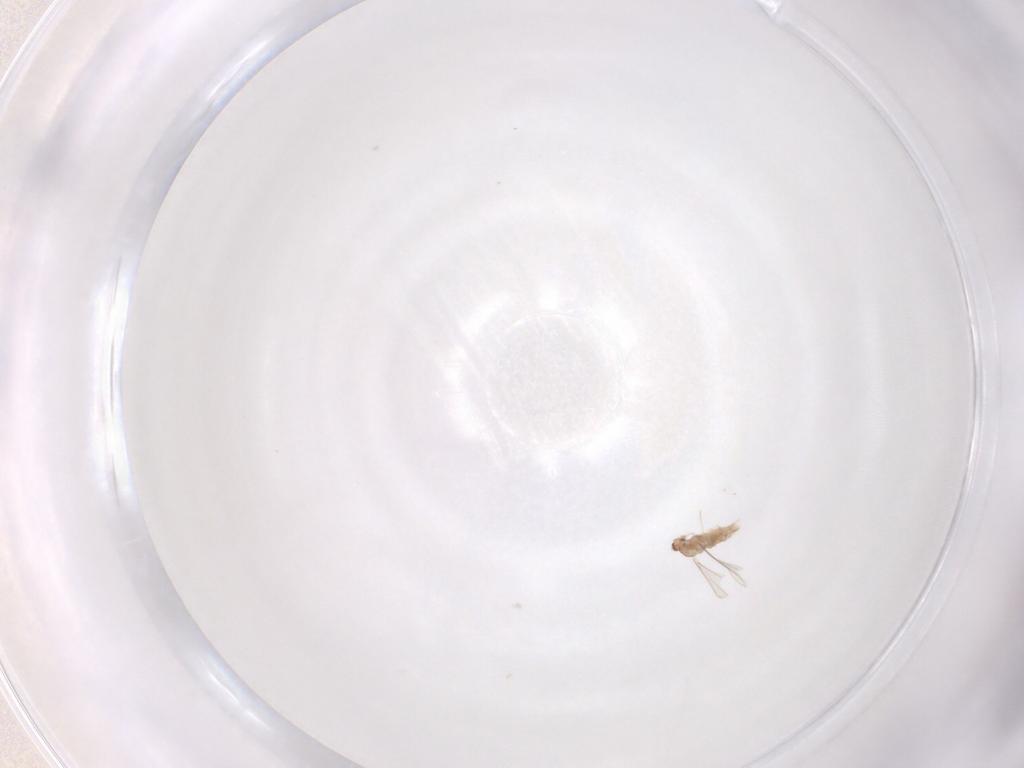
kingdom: Animalia
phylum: Arthropoda
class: Insecta
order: Diptera
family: Cecidomyiidae
